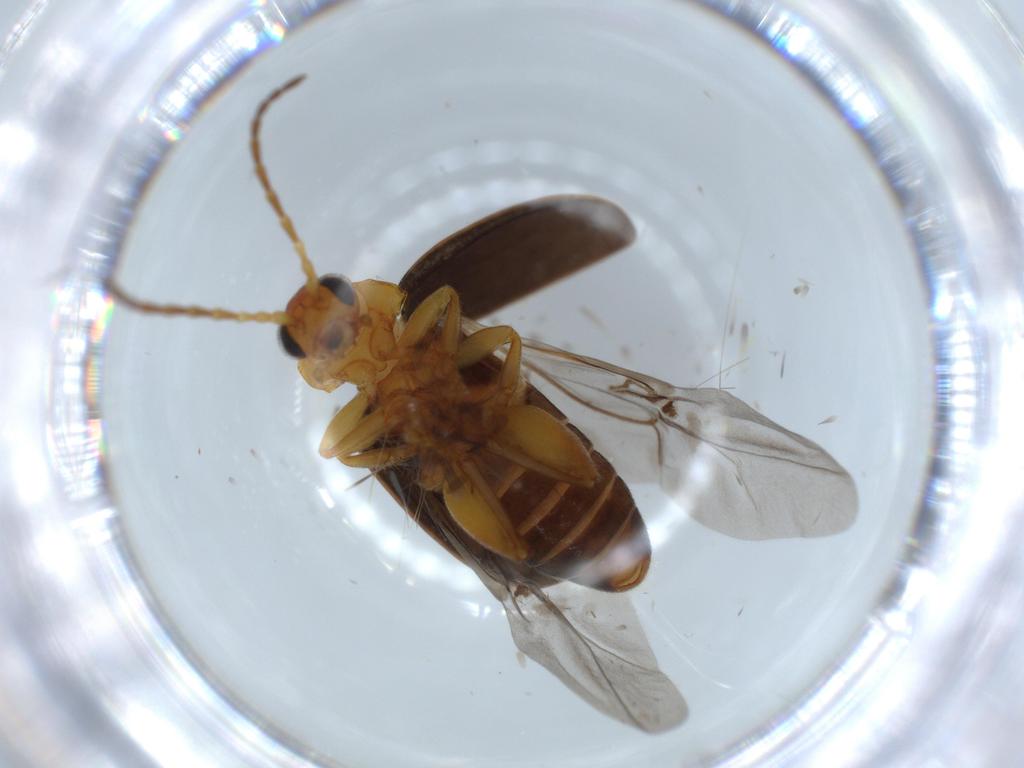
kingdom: Animalia
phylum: Arthropoda
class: Insecta
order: Coleoptera
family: Chrysomelidae
